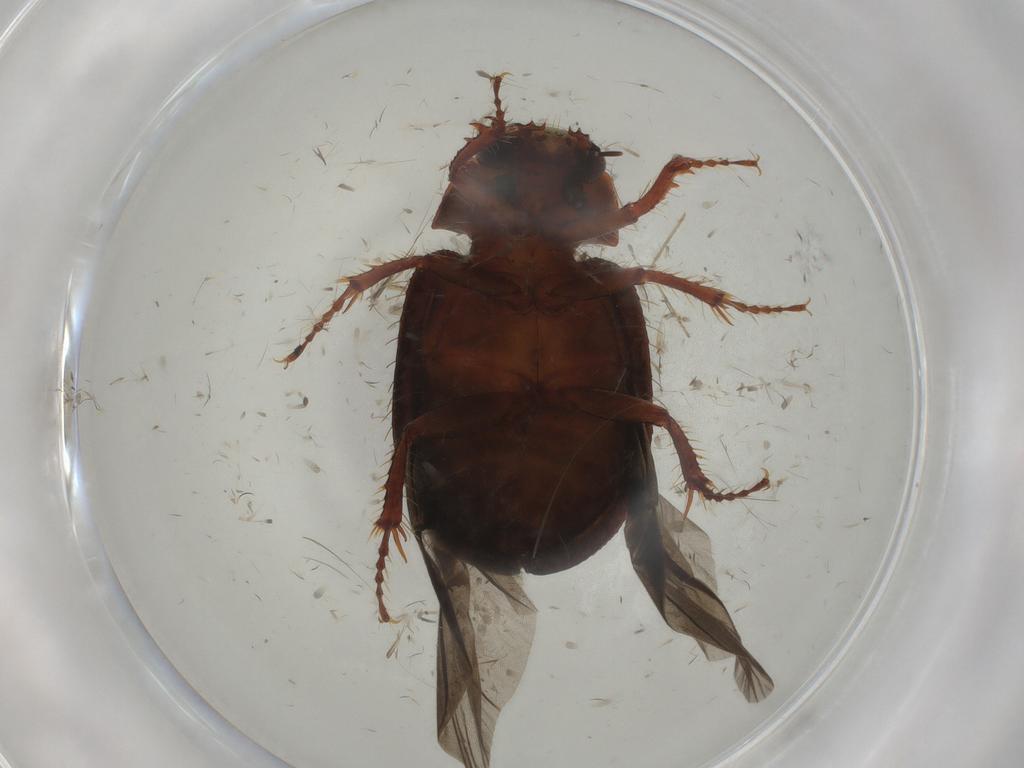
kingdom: Animalia
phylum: Arthropoda
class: Insecta
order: Coleoptera
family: Hybosoridae
